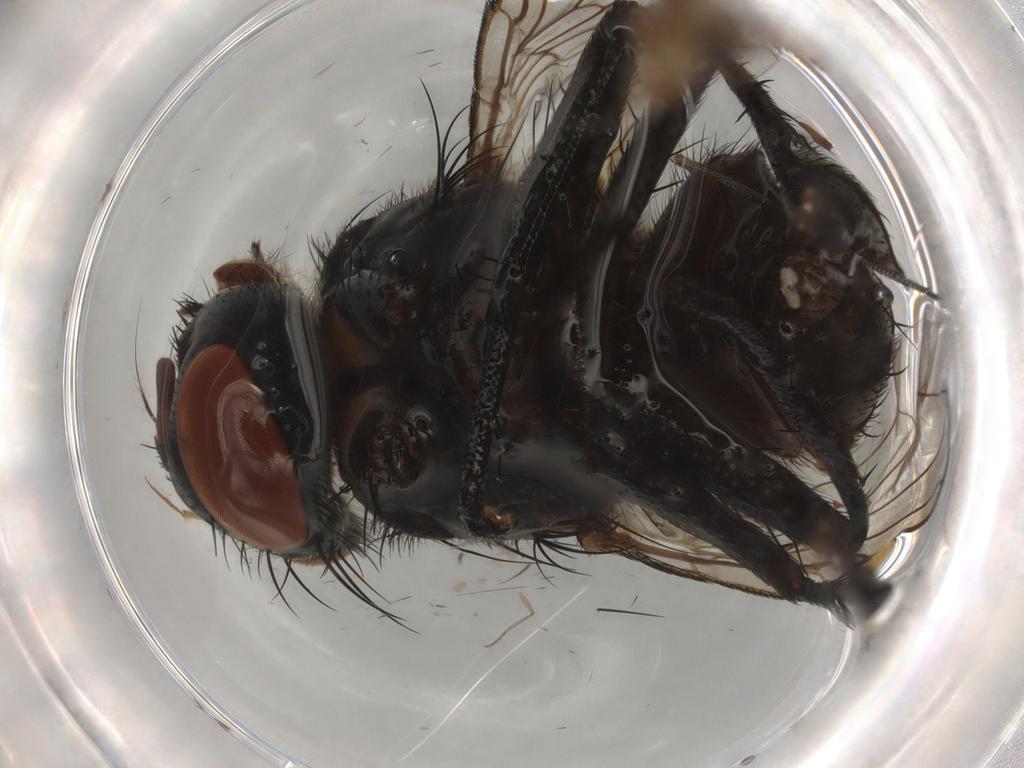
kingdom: Animalia
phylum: Arthropoda
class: Insecta
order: Diptera
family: Sarcophagidae
